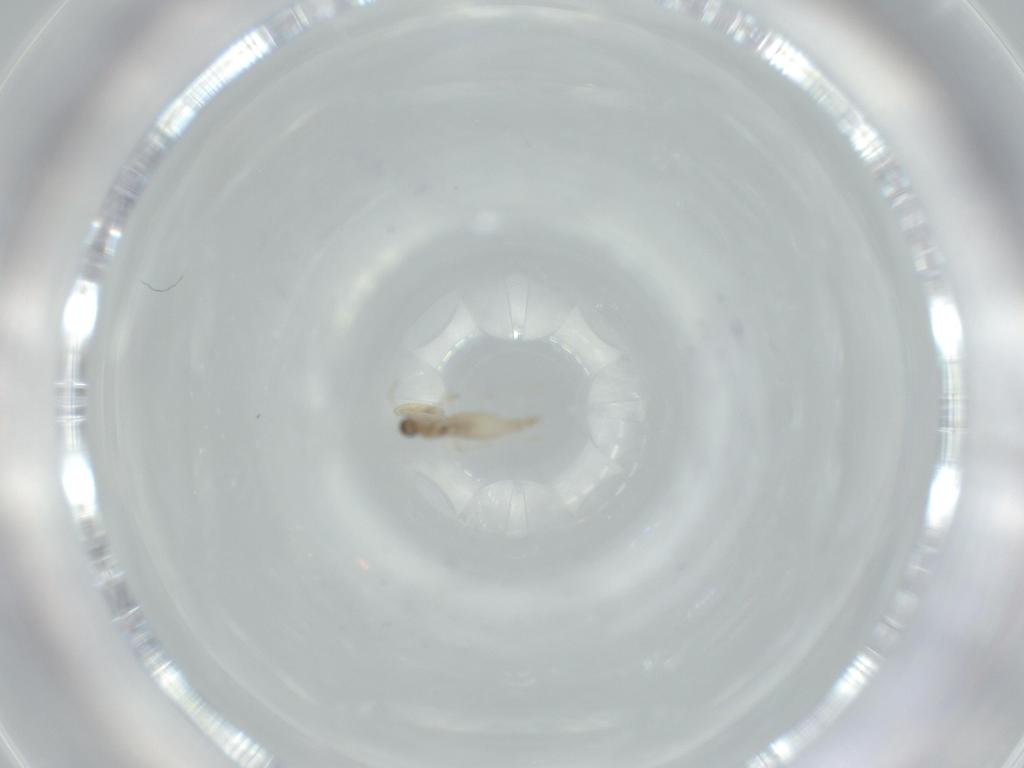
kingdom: Animalia
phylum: Arthropoda
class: Insecta
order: Diptera
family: Cecidomyiidae
